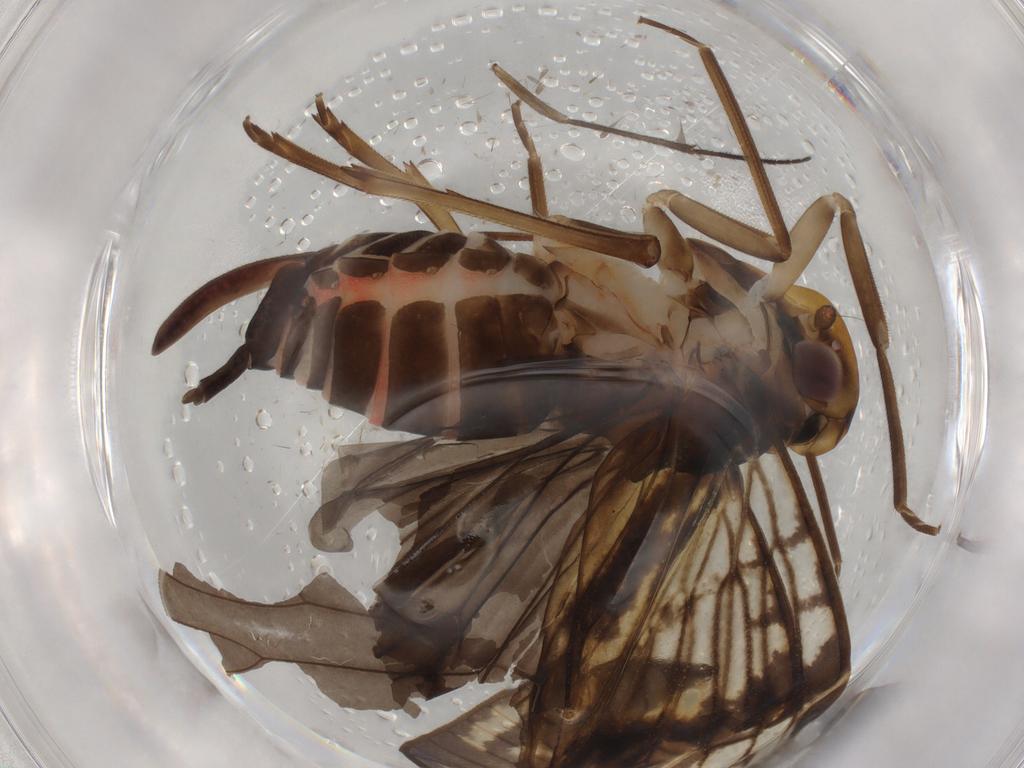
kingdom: Animalia
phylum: Arthropoda
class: Insecta
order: Hemiptera
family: Cixiidae
